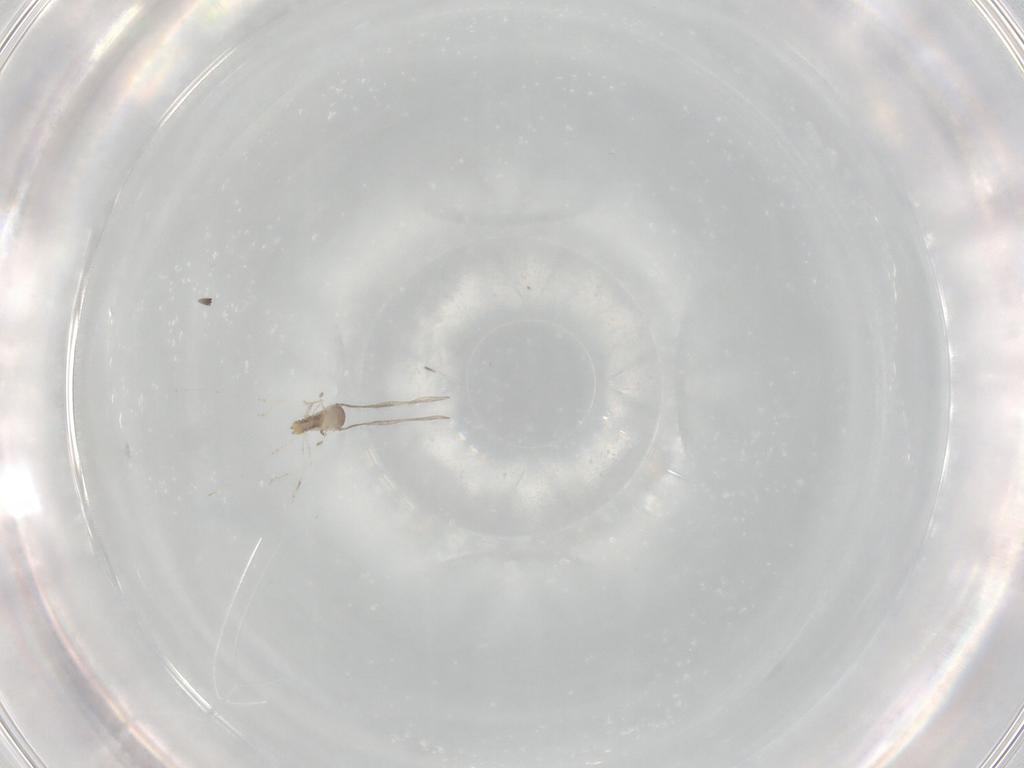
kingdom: Animalia
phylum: Arthropoda
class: Insecta
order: Diptera
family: Cecidomyiidae
